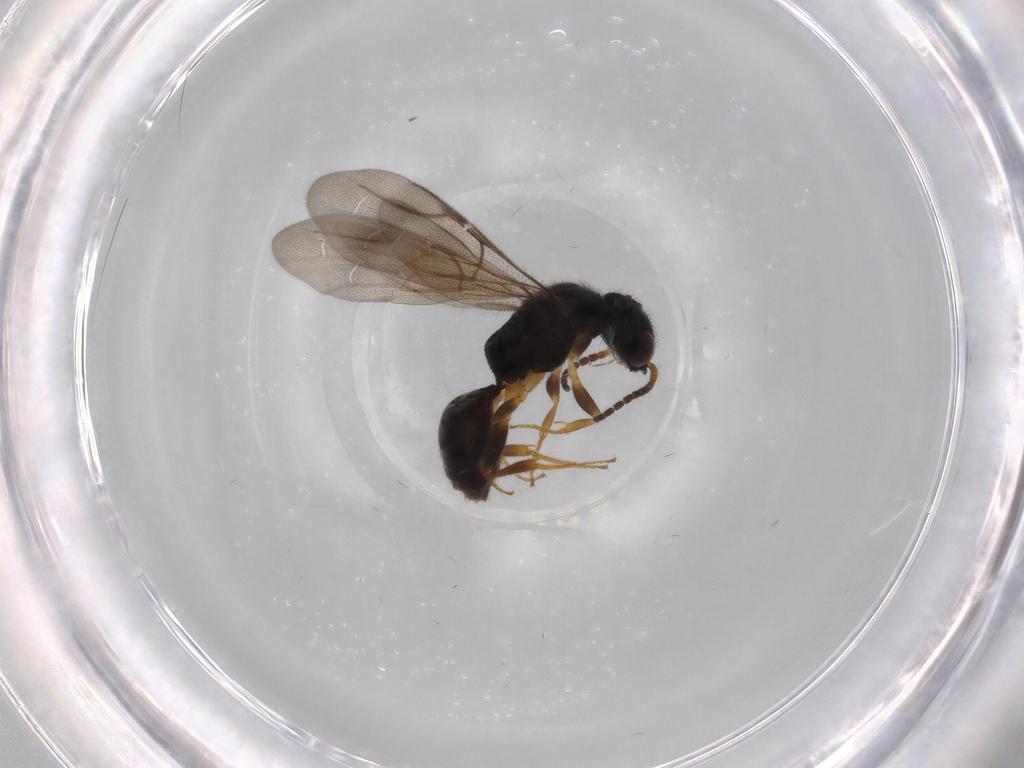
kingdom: Animalia
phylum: Arthropoda
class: Insecta
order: Hymenoptera
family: Bethylidae
